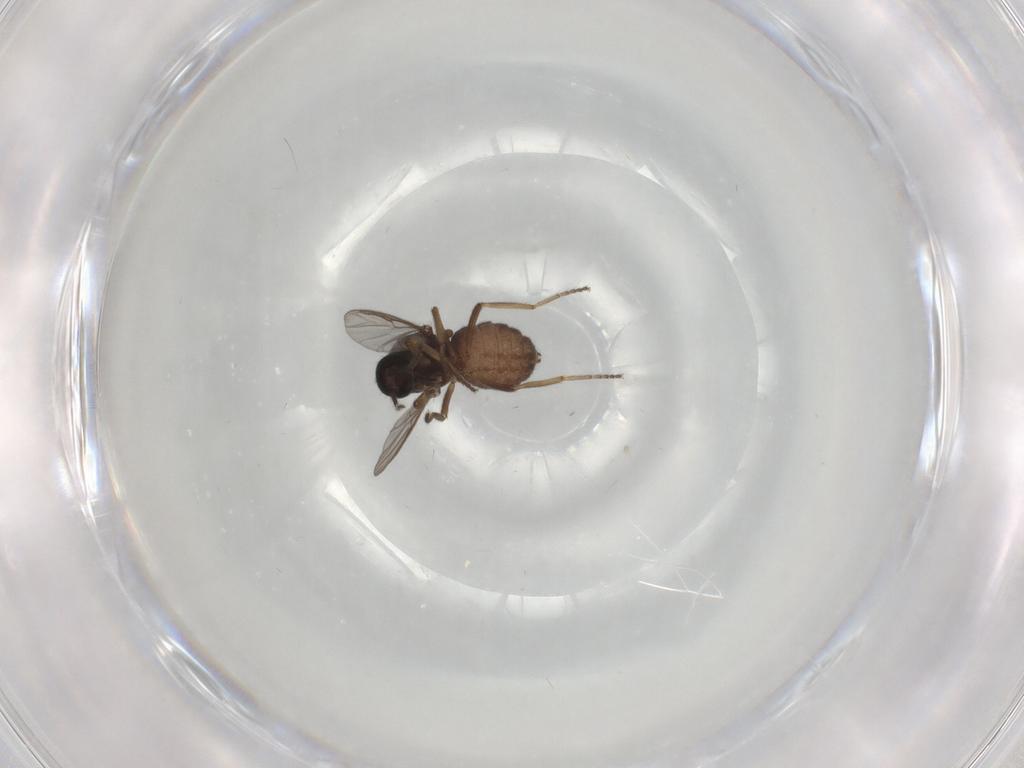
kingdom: Animalia
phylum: Arthropoda
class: Insecta
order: Diptera
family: Ceratopogonidae
